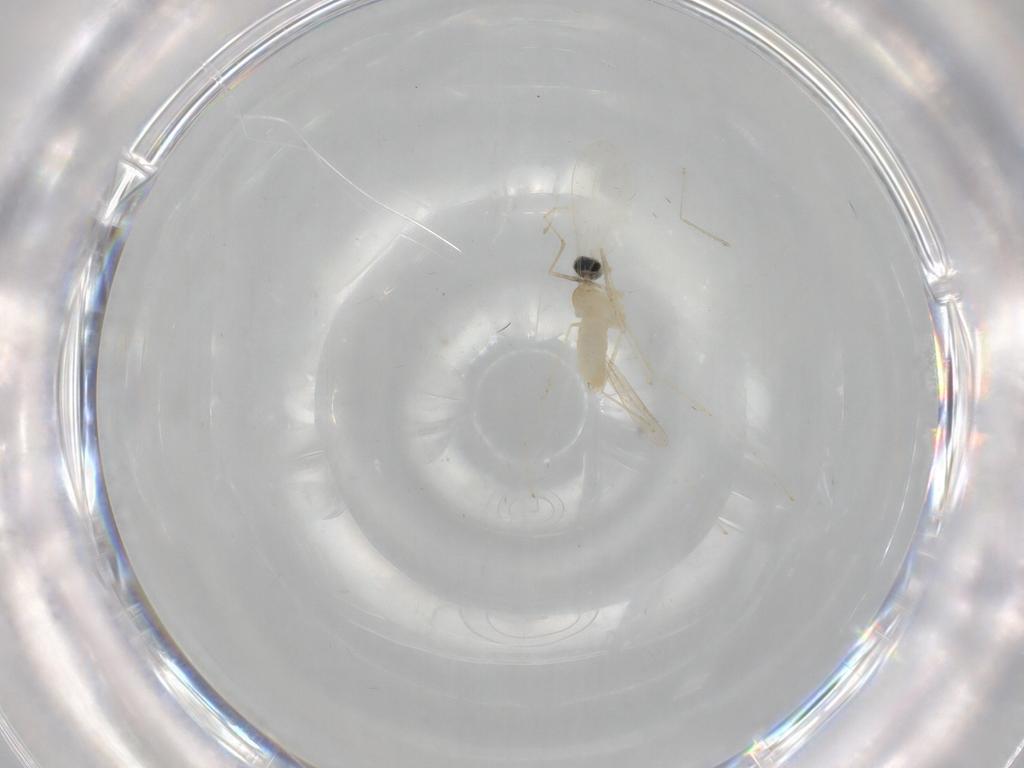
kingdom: Animalia
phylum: Arthropoda
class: Insecta
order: Diptera
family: Cecidomyiidae
